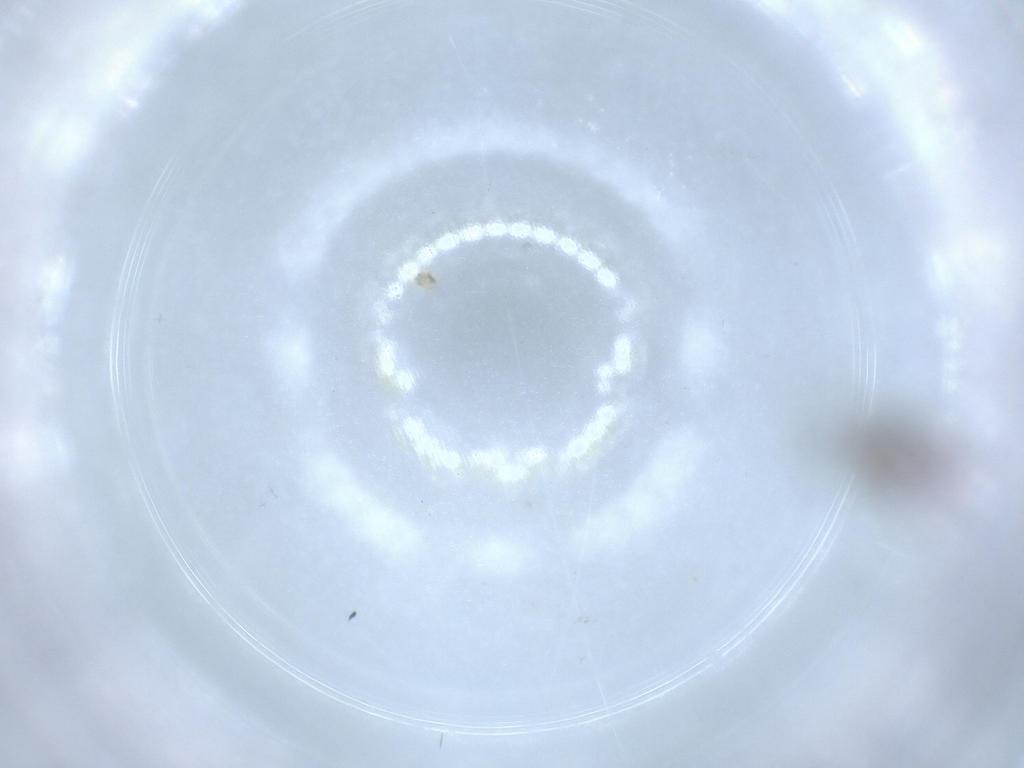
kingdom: Animalia
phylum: Arthropoda
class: Insecta
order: Hymenoptera
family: Scelionidae
